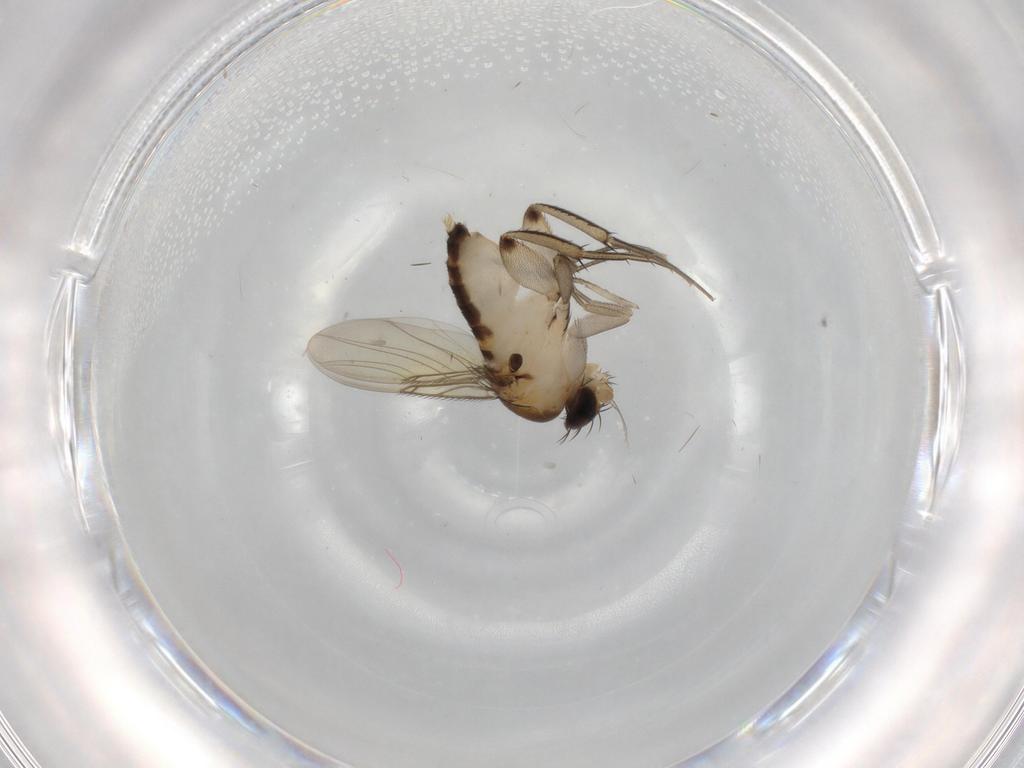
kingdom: Animalia
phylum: Arthropoda
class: Insecta
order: Diptera
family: Phoridae
